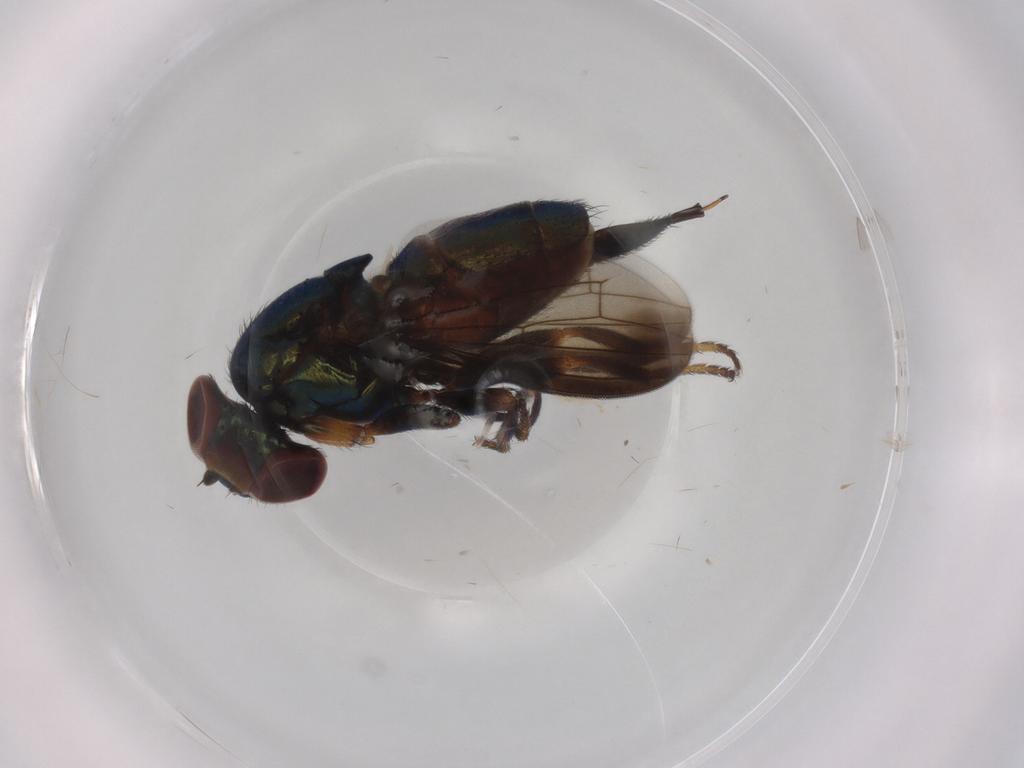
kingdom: Animalia
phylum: Arthropoda
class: Insecta
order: Diptera
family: Ulidiidae
